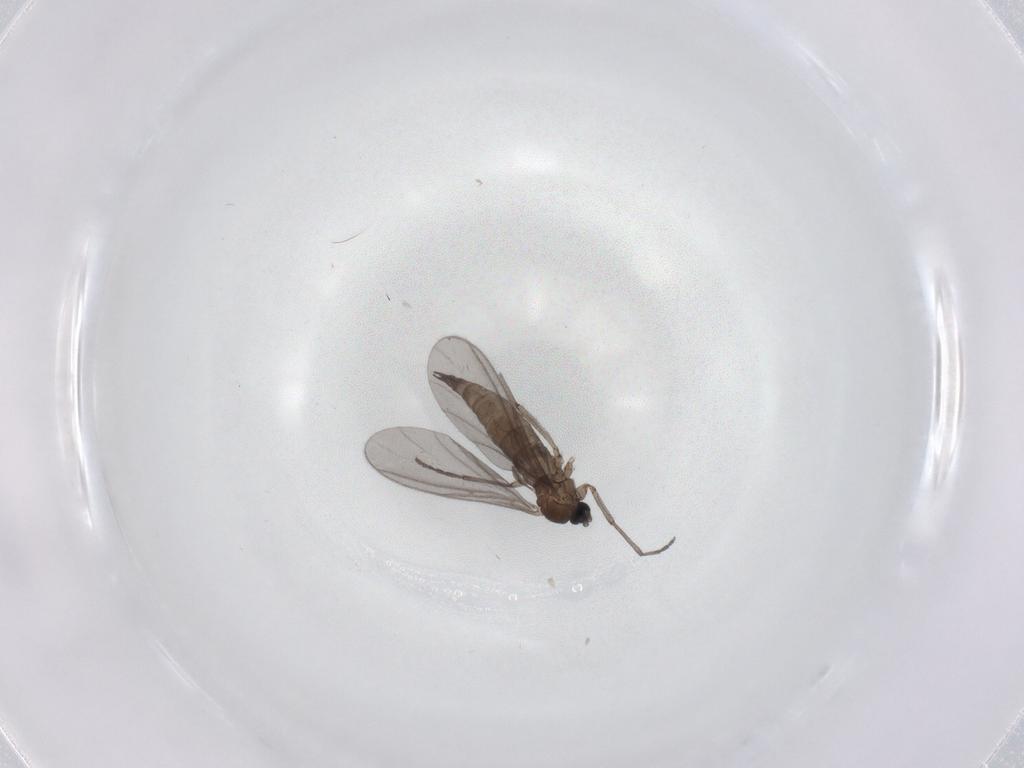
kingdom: Animalia
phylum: Arthropoda
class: Insecta
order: Diptera
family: Sciaridae
